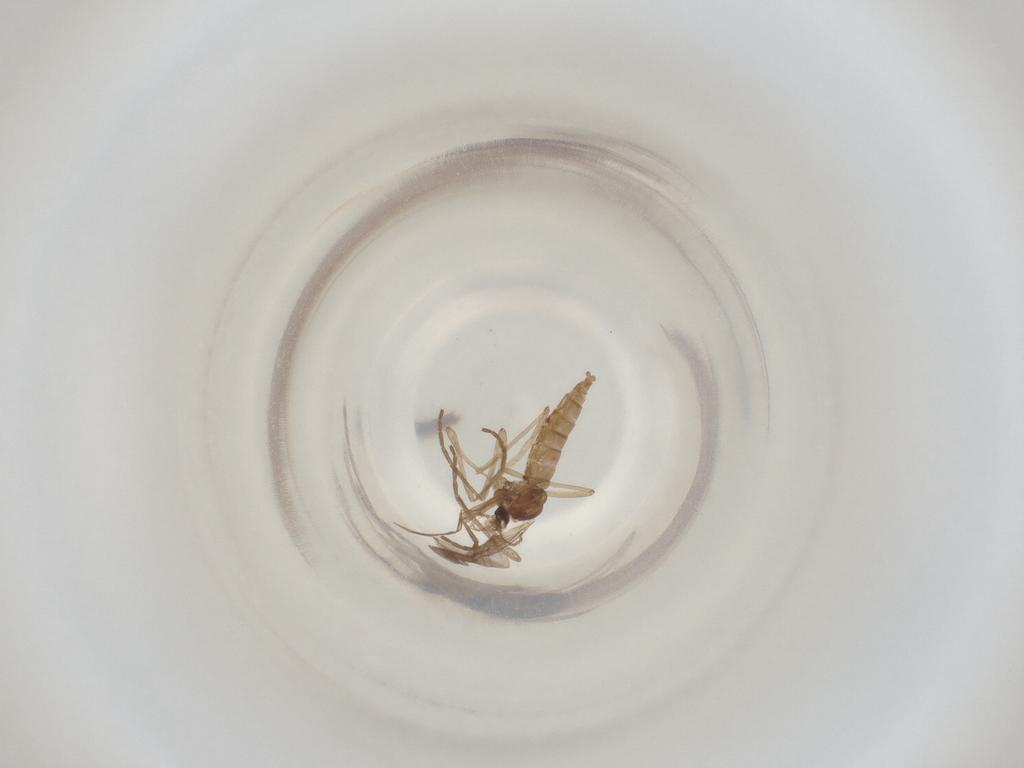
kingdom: Animalia
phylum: Arthropoda
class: Insecta
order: Diptera
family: Cecidomyiidae
